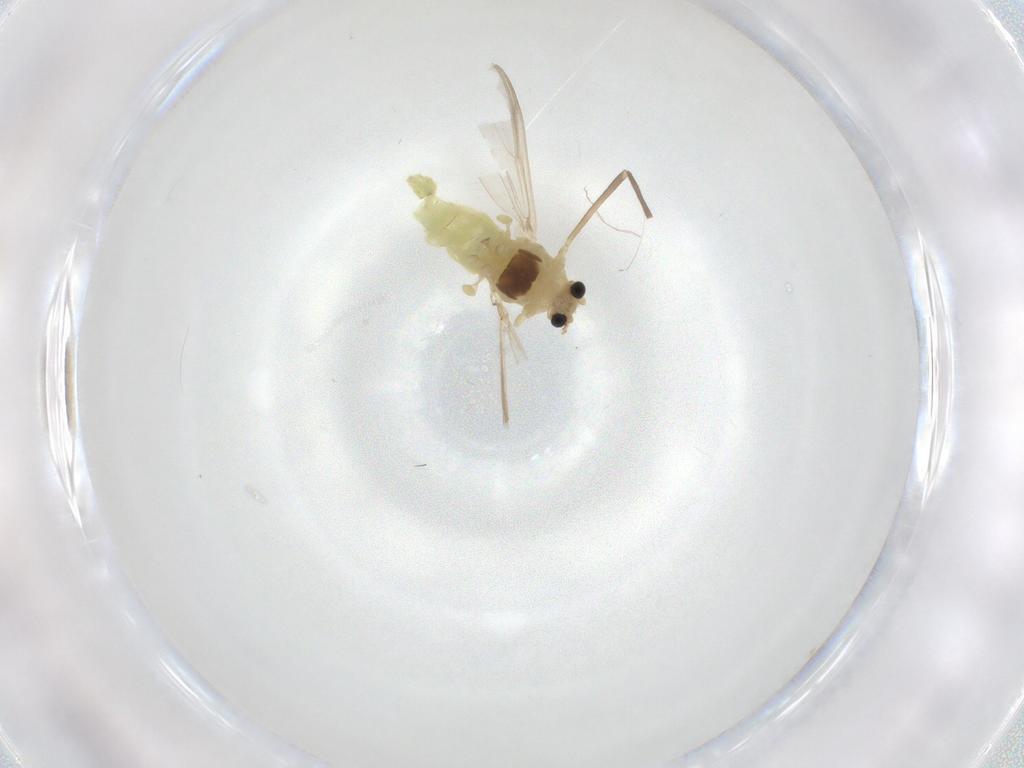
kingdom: Animalia
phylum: Arthropoda
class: Insecta
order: Diptera
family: Chironomidae
